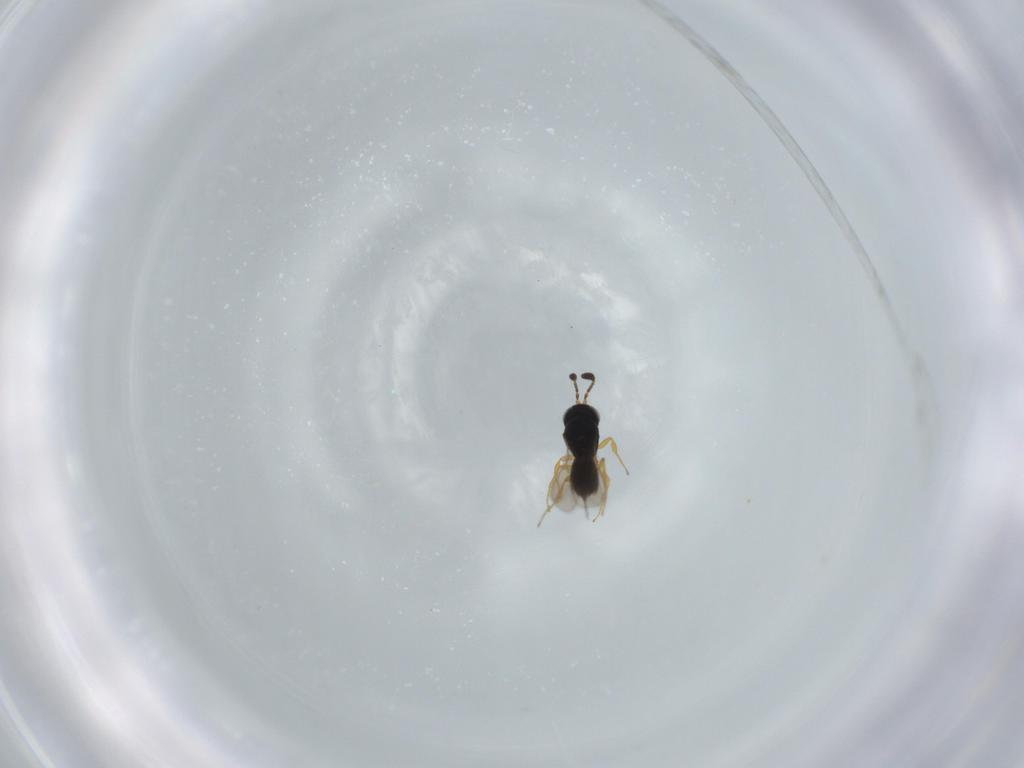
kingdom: Animalia
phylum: Arthropoda
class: Insecta
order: Hymenoptera
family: Scelionidae
